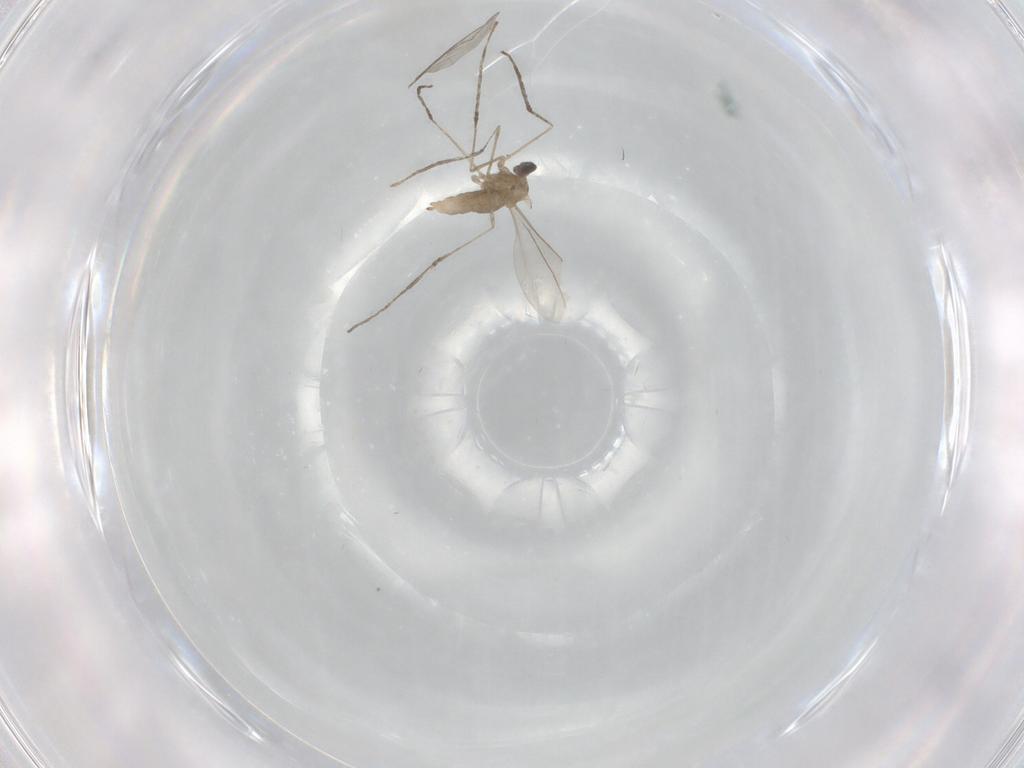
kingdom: Animalia
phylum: Arthropoda
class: Insecta
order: Diptera
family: Cecidomyiidae
